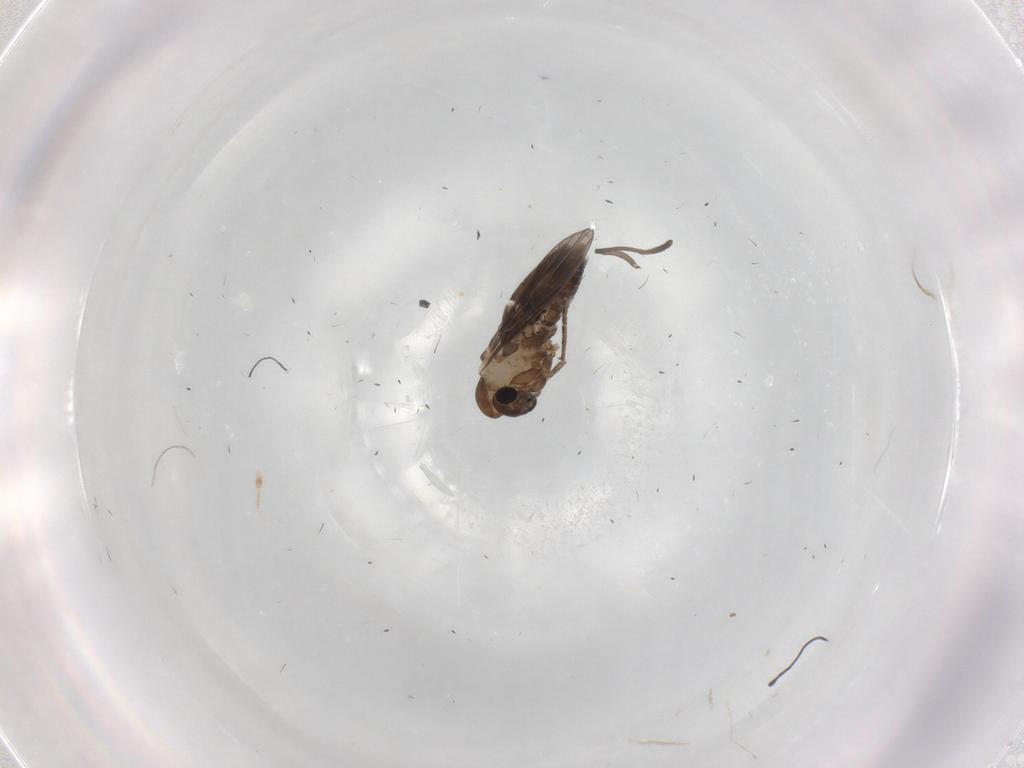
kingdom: Animalia
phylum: Arthropoda
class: Insecta
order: Diptera
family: Psychodidae
